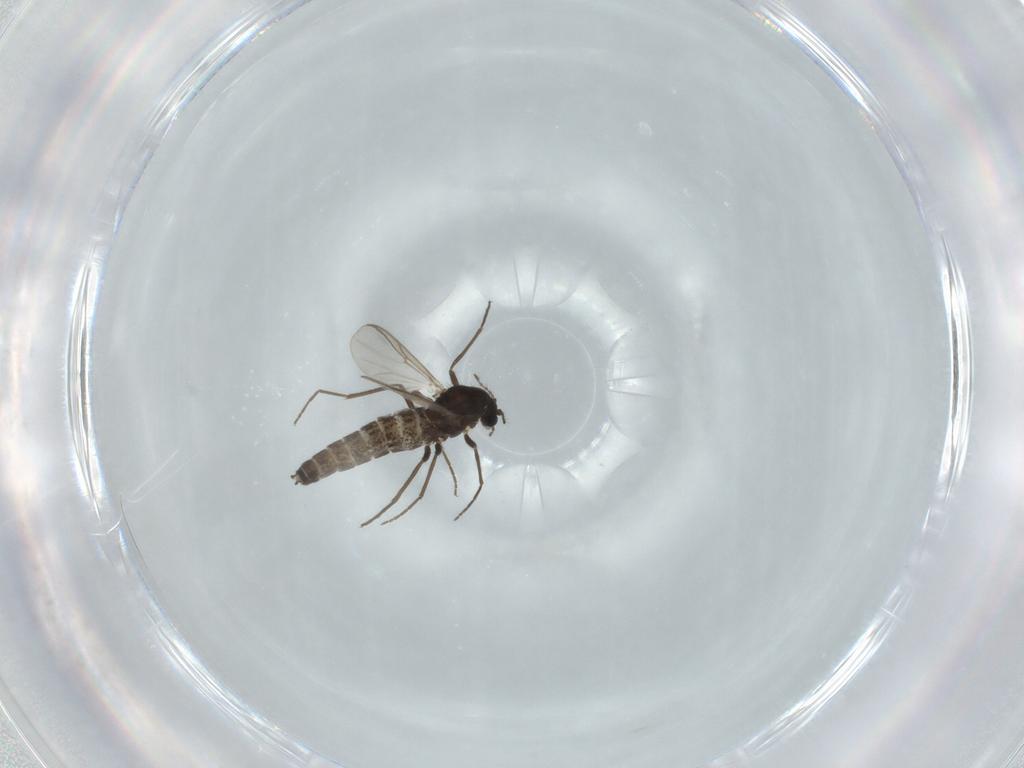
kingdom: Animalia
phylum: Arthropoda
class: Insecta
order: Diptera
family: Chironomidae
